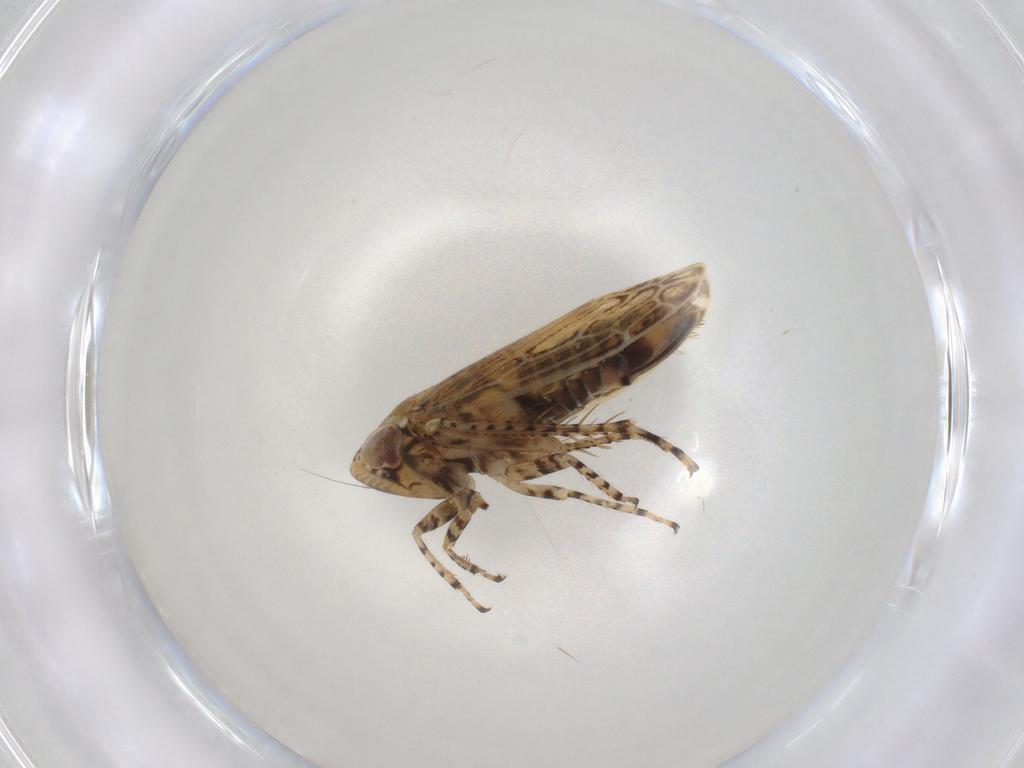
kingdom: Animalia
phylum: Arthropoda
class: Insecta
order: Hemiptera
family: Cicadellidae
